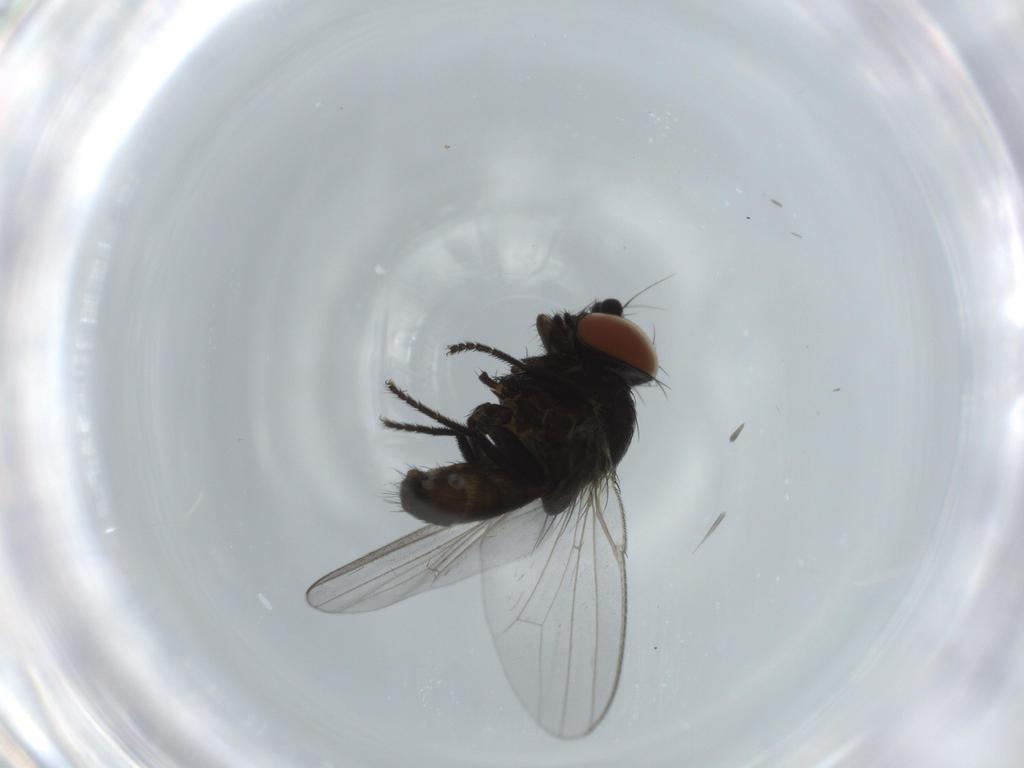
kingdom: Animalia
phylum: Arthropoda
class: Insecta
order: Diptera
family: Milichiidae
